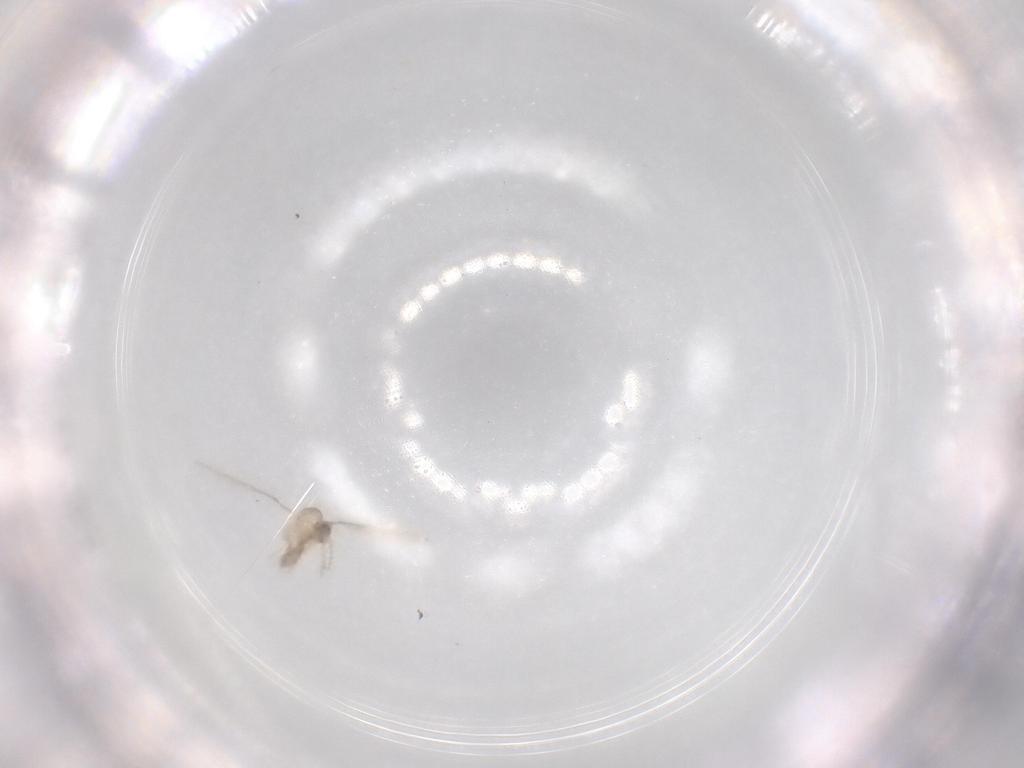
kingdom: Animalia
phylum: Arthropoda
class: Insecta
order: Diptera
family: Cecidomyiidae
